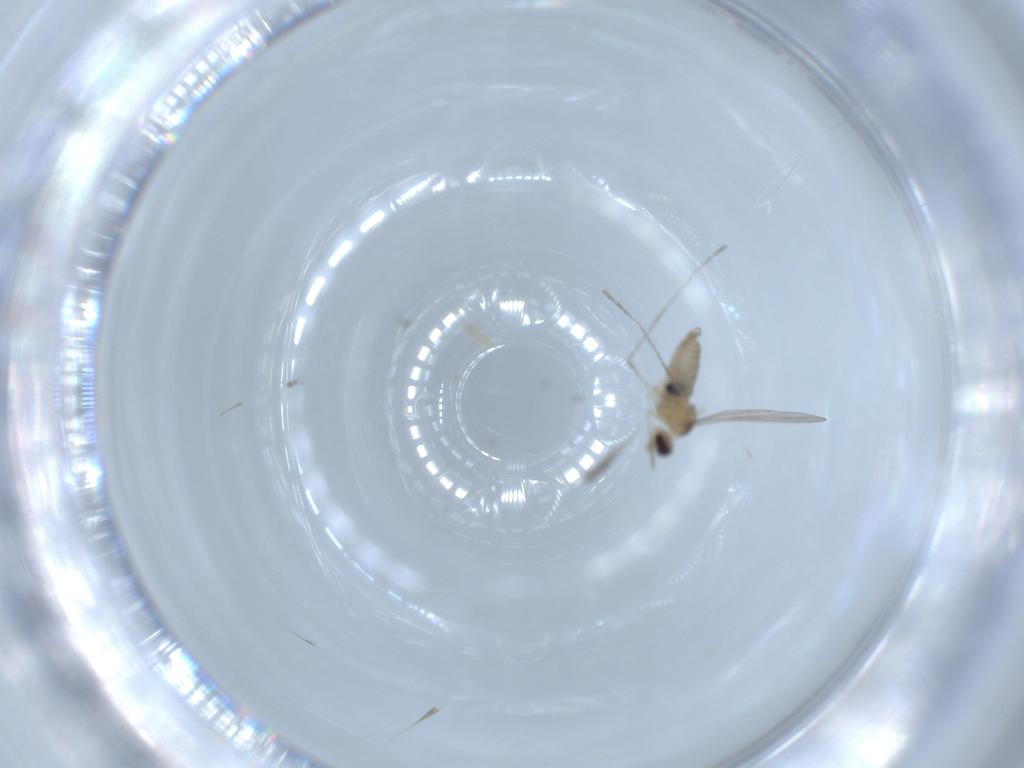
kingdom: Animalia
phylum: Arthropoda
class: Insecta
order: Diptera
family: Cecidomyiidae
